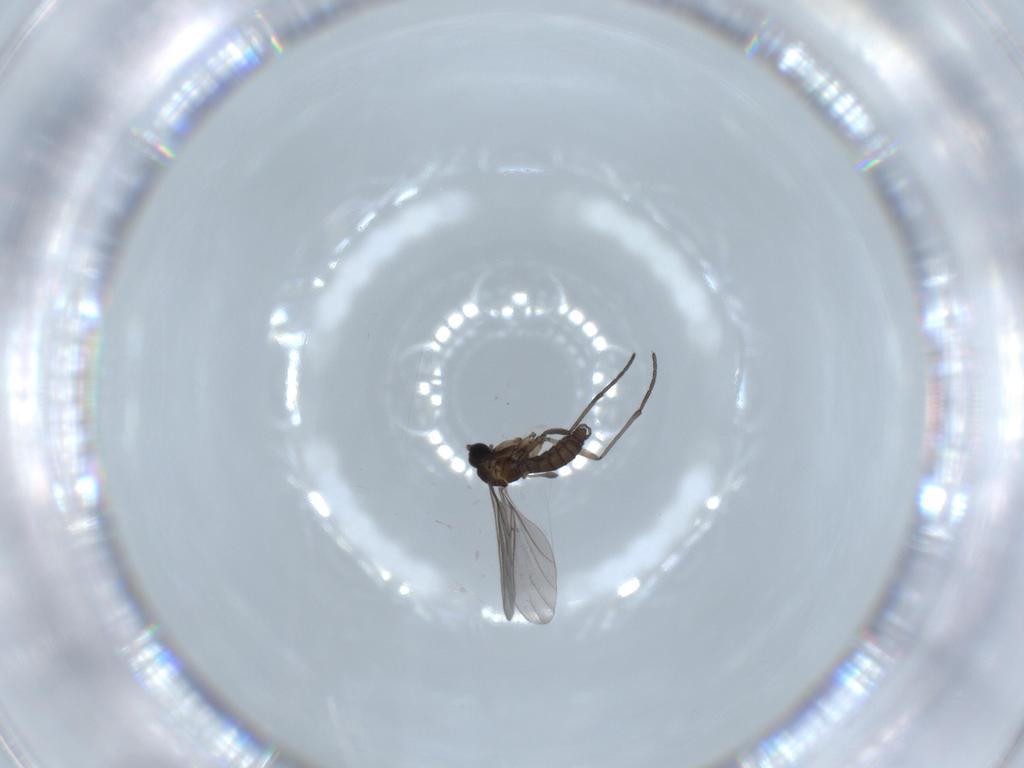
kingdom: Animalia
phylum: Arthropoda
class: Insecta
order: Diptera
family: Sciaridae
